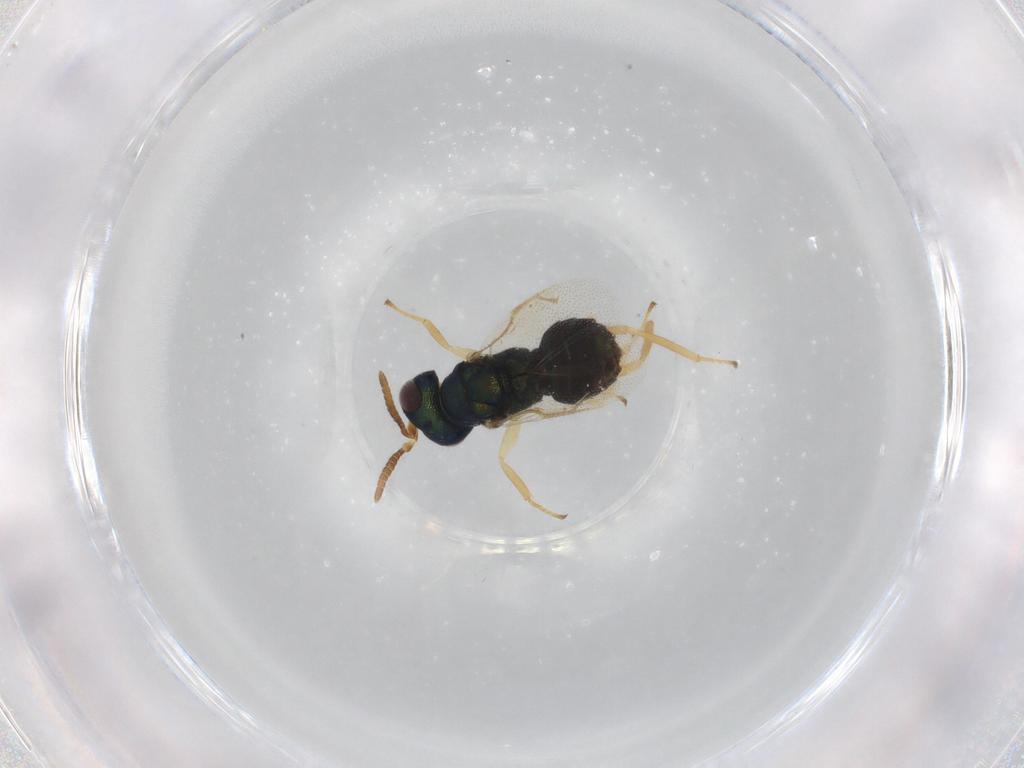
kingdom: Animalia
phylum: Arthropoda
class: Insecta
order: Hymenoptera
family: Pteromalidae
